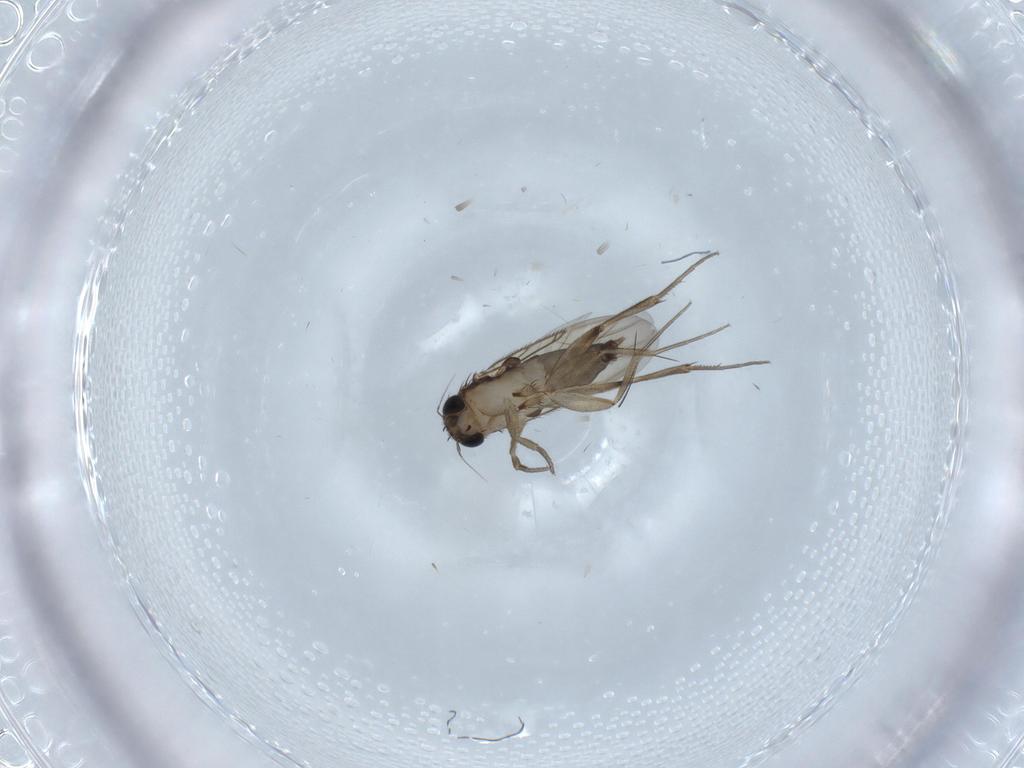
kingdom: Animalia
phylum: Arthropoda
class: Insecta
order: Diptera
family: Phoridae
